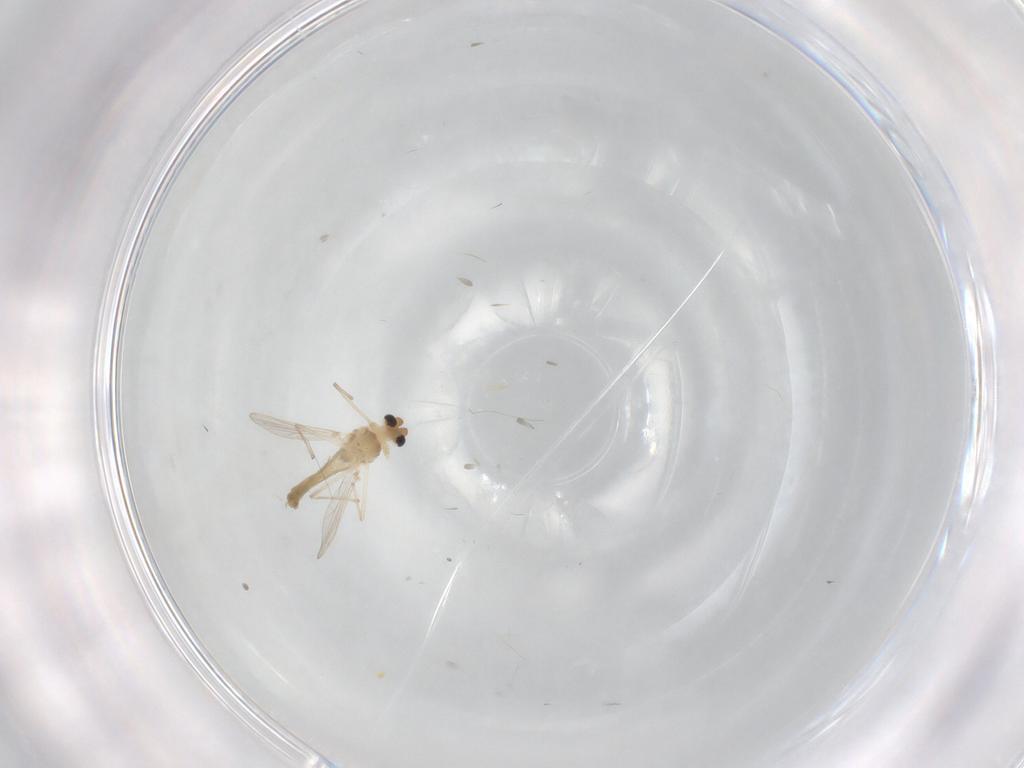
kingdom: Animalia
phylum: Arthropoda
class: Insecta
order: Diptera
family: Chironomidae
